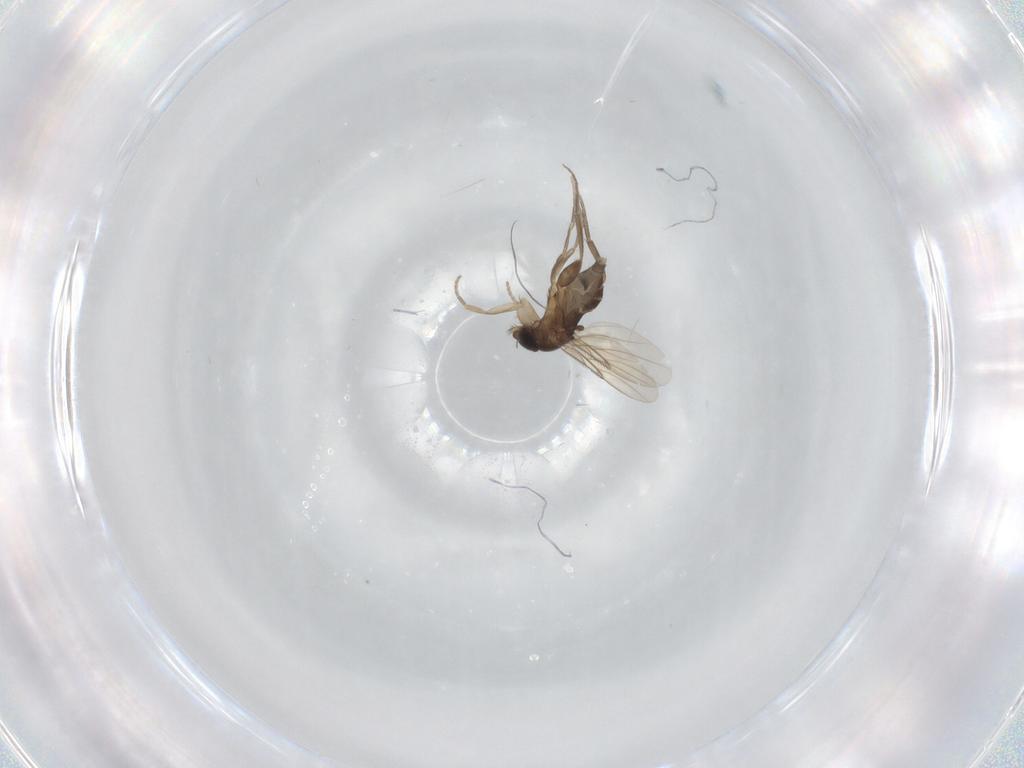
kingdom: Animalia
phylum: Arthropoda
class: Insecta
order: Diptera
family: Phoridae
